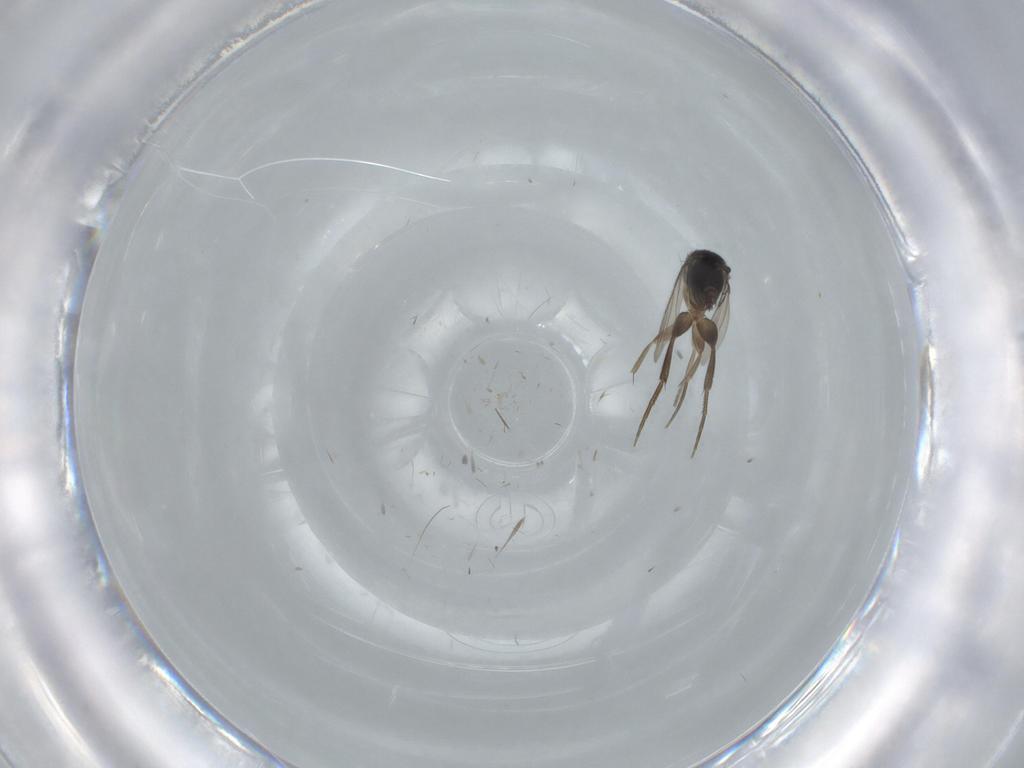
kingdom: Animalia
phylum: Arthropoda
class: Insecta
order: Diptera
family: Phoridae
